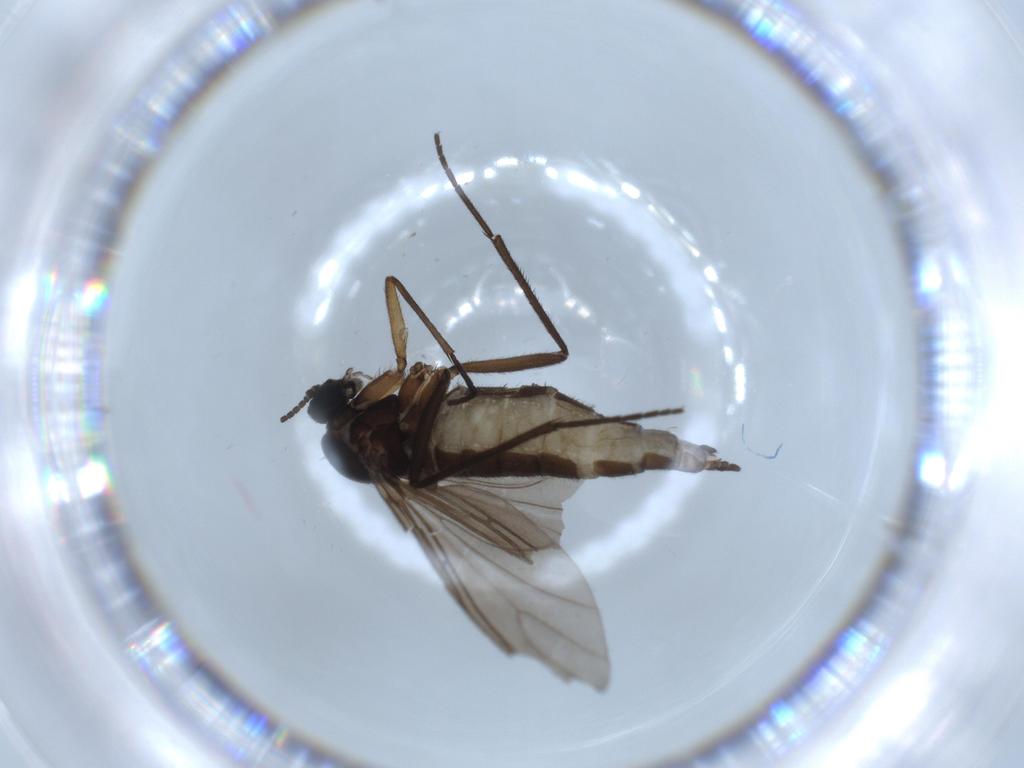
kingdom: Animalia
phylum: Arthropoda
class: Insecta
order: Diptera
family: Sciaridae
